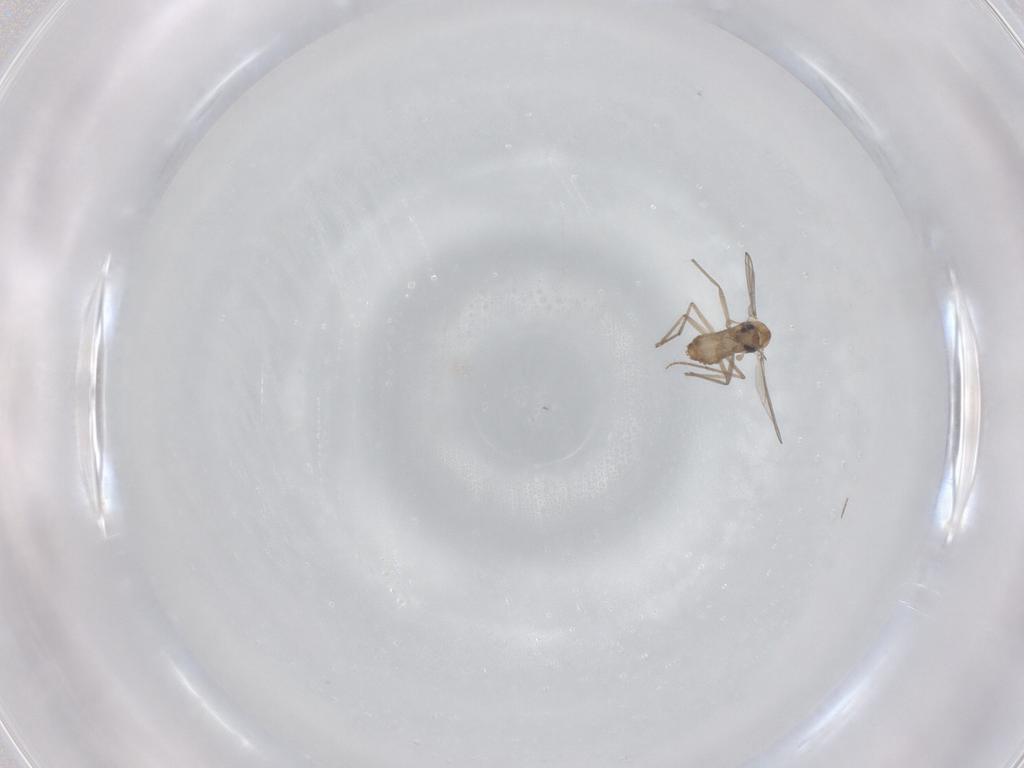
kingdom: Animalia
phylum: Arthropoda
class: Insecta
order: Diptera
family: Chironomidae
